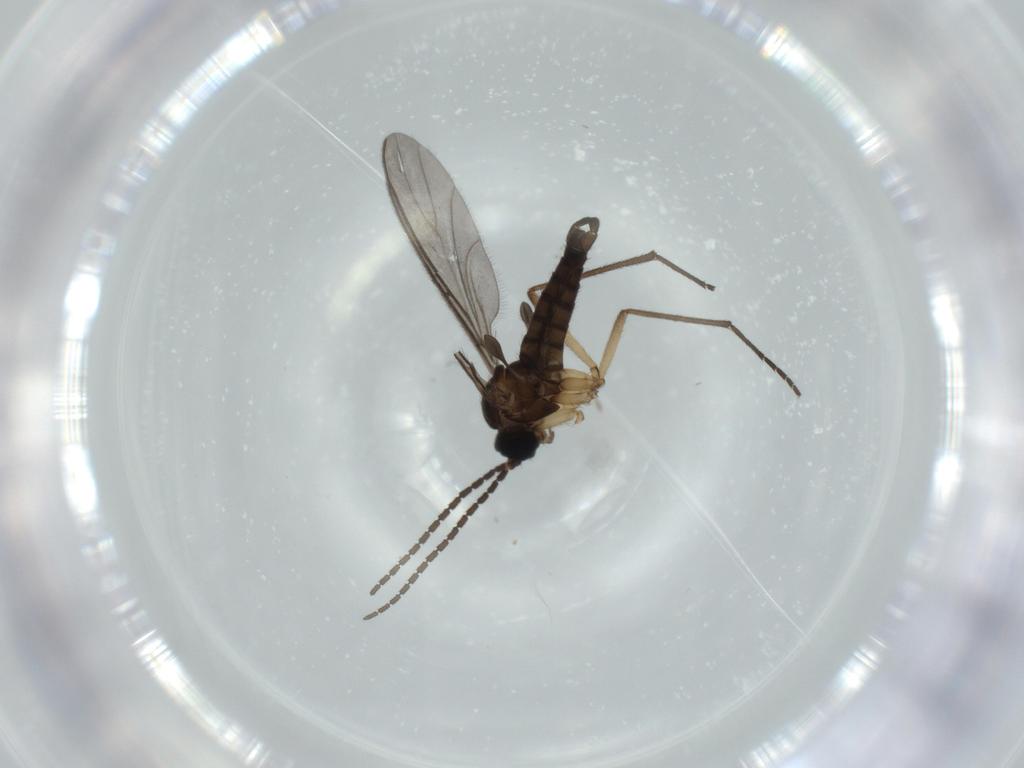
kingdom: Animalia
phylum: Arthropoda
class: Insecta
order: Diptera
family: Sciaridae
